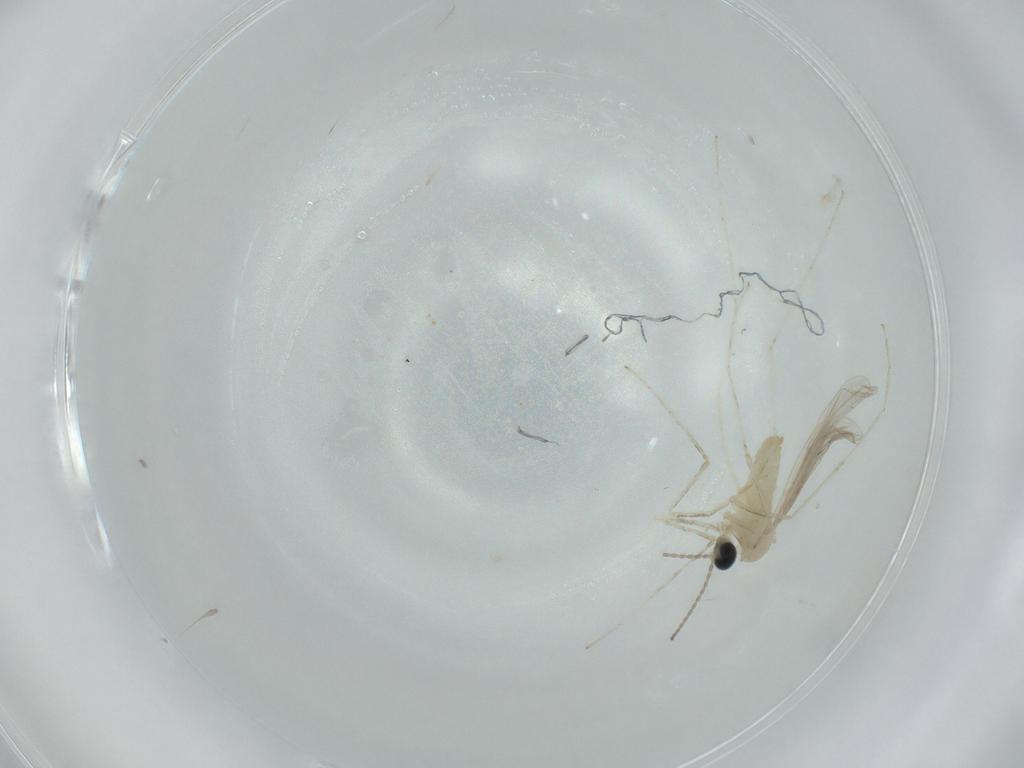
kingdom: Animalia
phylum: Arthropoda
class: Insecta
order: Diptera
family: Cecidomyiidae
